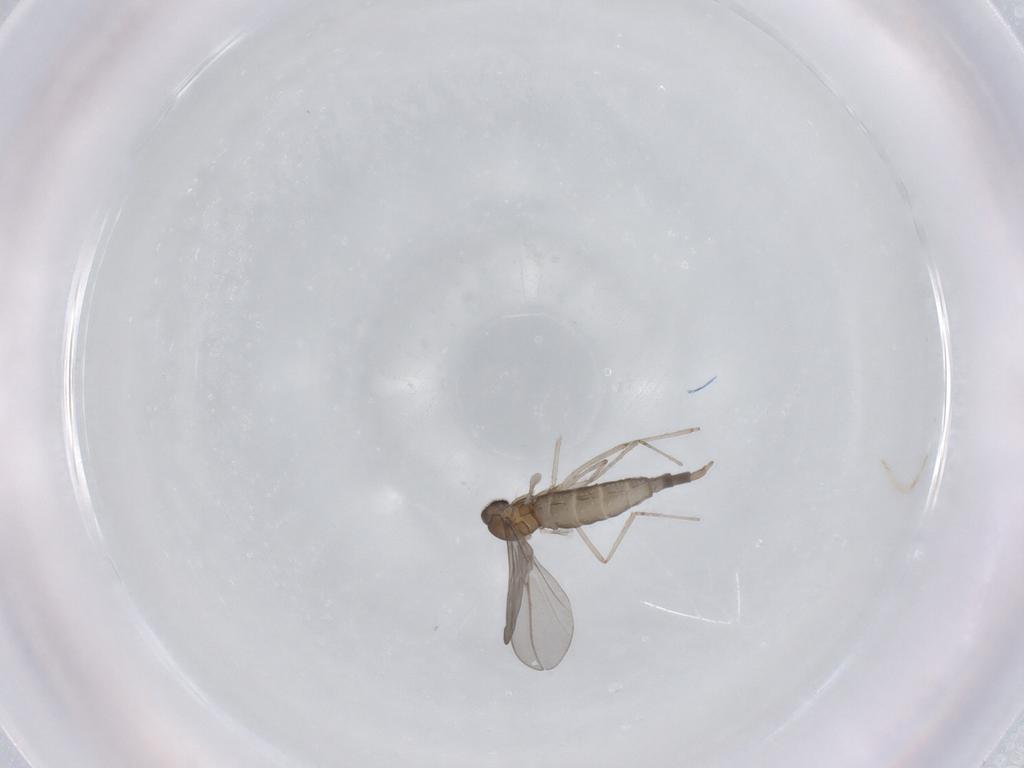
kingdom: Animalia
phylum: Arthropoda
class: Insecta
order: Diptera
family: Cecidomyiidae
